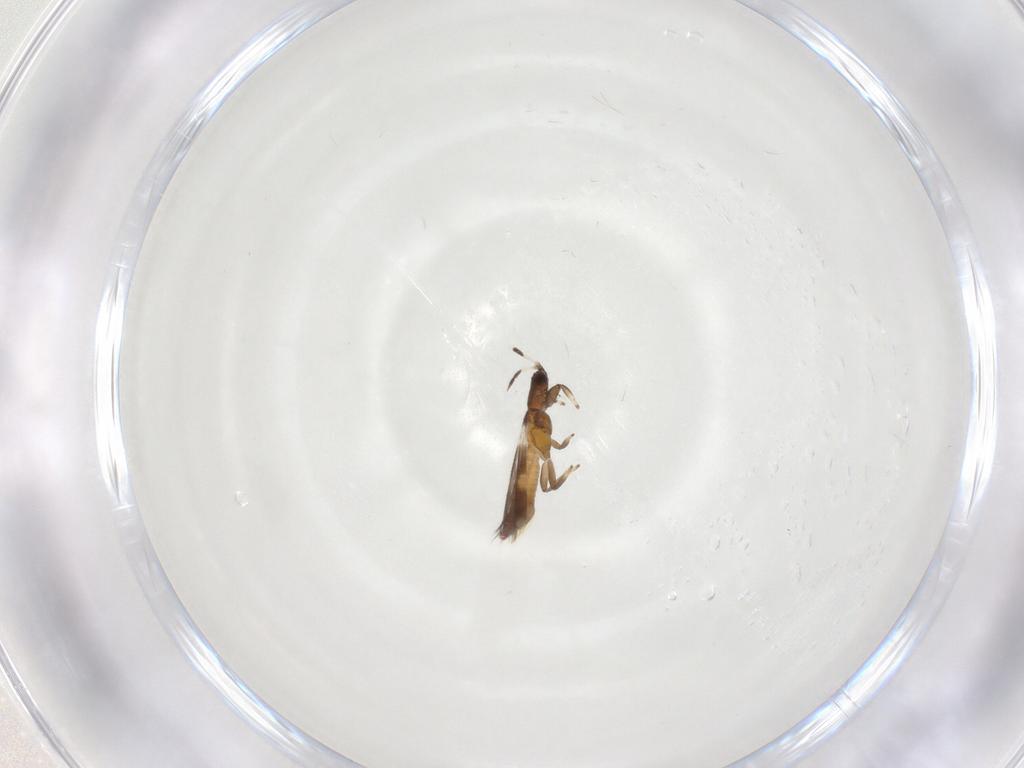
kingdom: Animalia
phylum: Arthropoda
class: Insecta
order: Thysanoptera
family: Aeolothripidae
